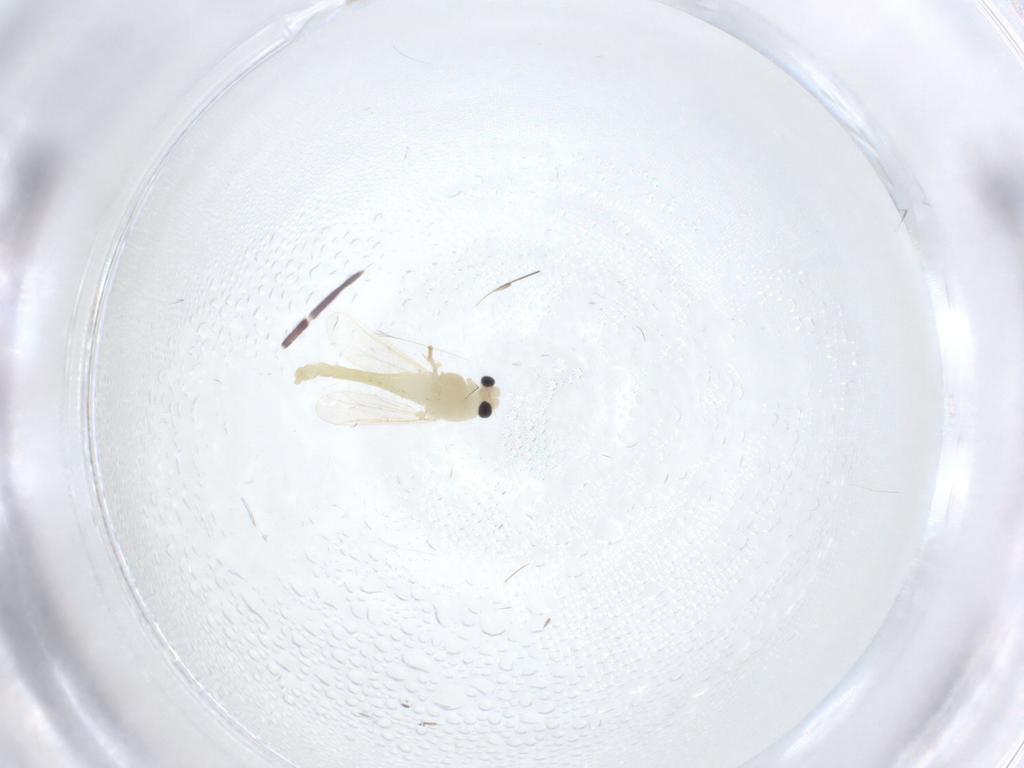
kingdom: Animalia
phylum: Arthropoda
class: Insecta
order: Diptera
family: Chironomidae
